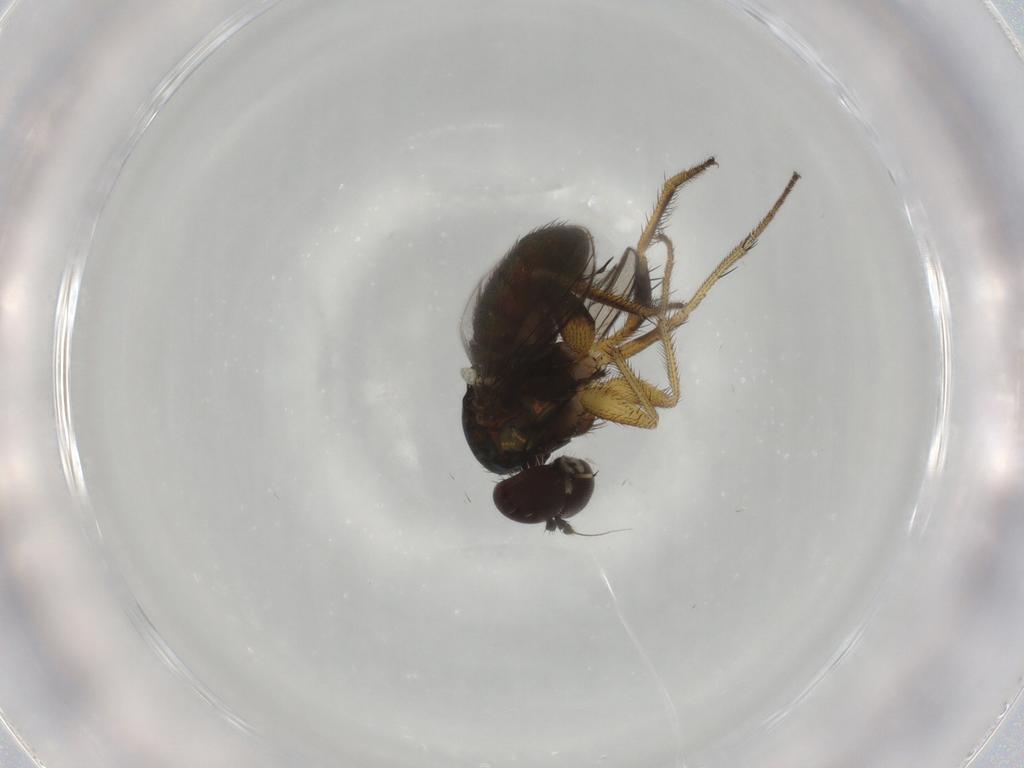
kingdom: Animalia
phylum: Arthropoda
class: Insecta
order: Diptera
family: Dolichopodidae
